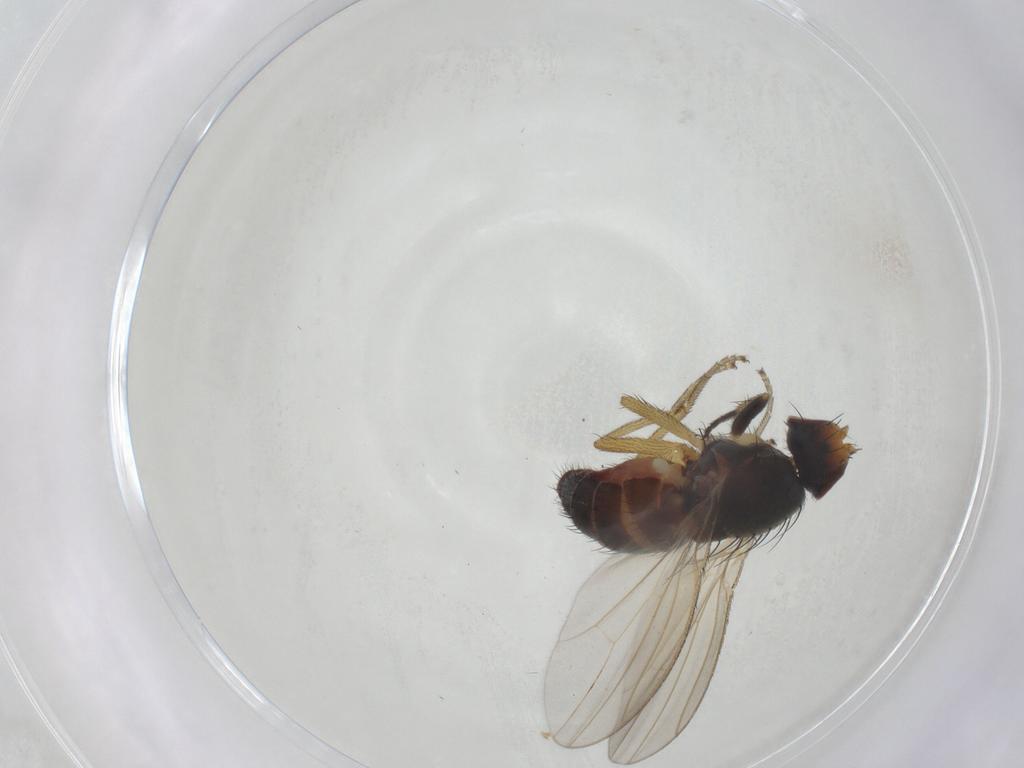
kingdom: Animalia
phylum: Arthropoda
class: Insecta
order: Diptera
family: Heleomyzidae
